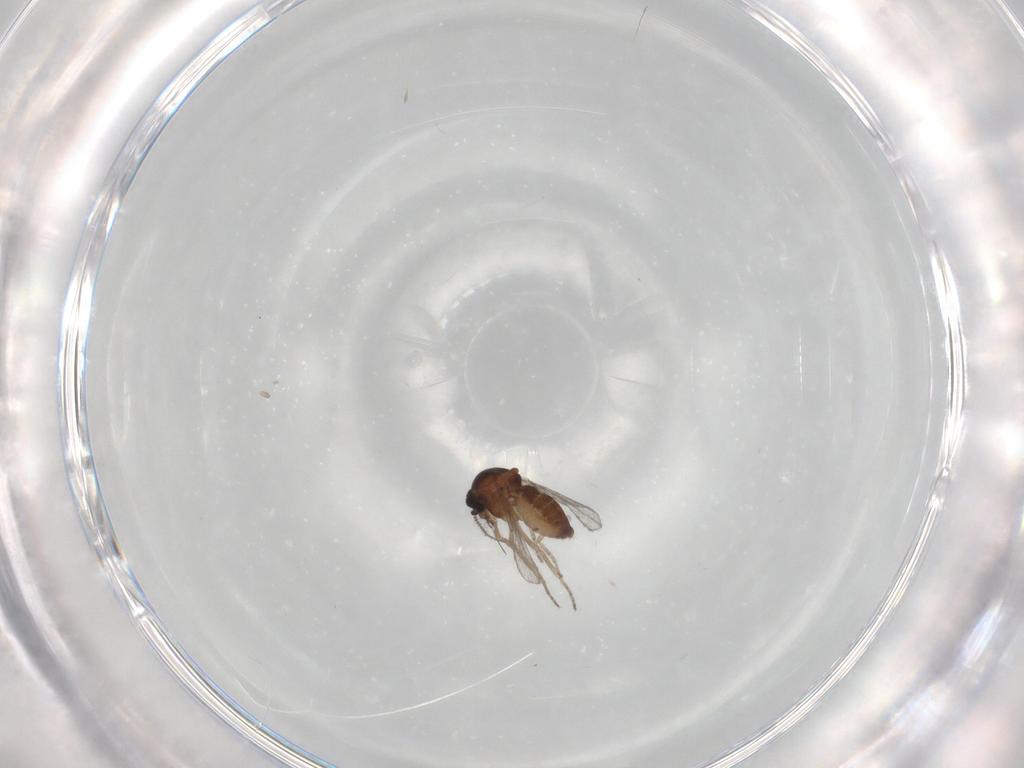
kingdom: Animalia
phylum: Arthropoda
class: Insecta
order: Diptera
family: Ceratopogonidae
